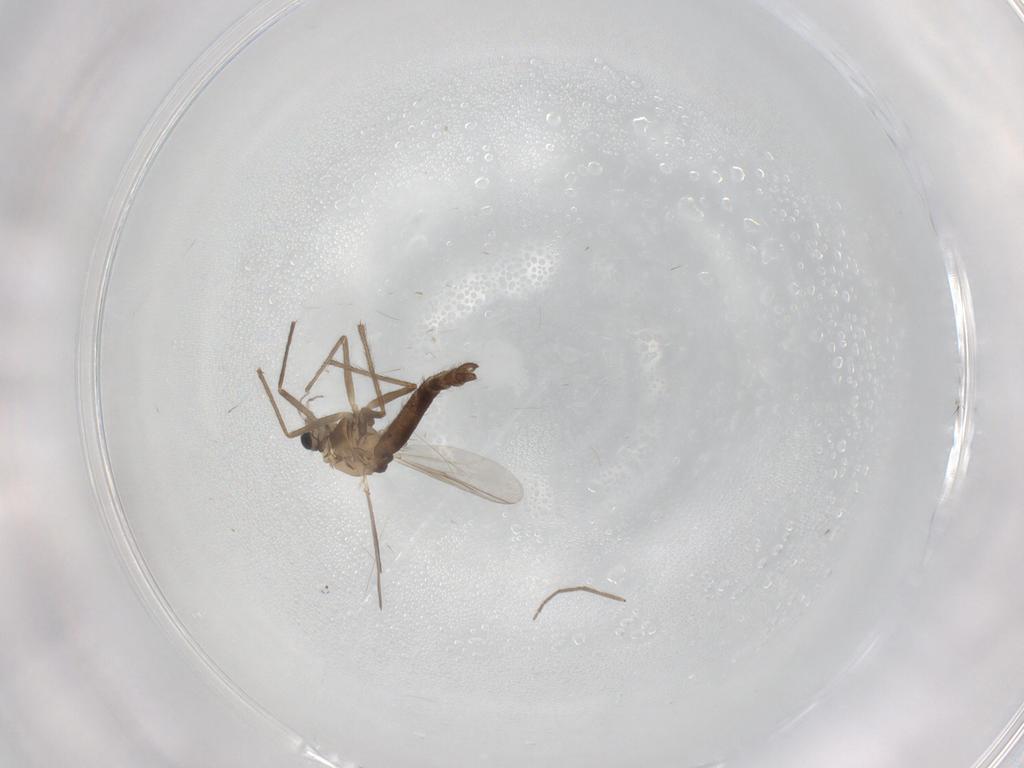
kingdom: Animalia
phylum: Arthropoda
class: Insecta
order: Diptera
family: Chironomidae
